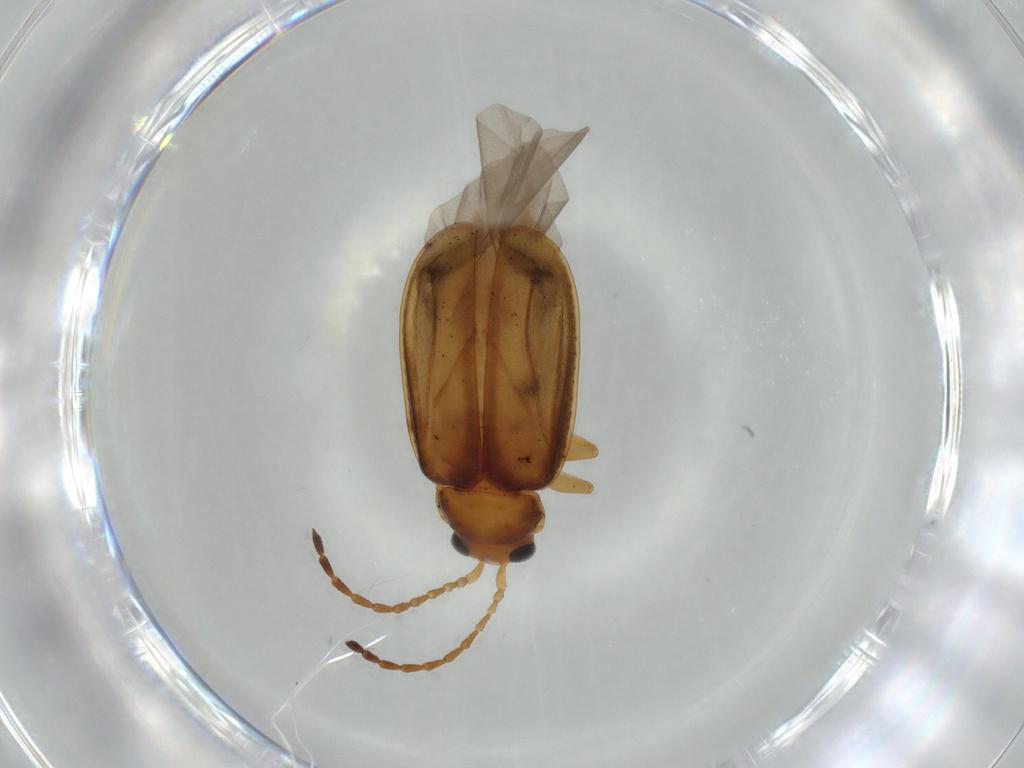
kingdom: Animalia
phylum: Arthropoda
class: Insecta
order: Coleoptera
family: Chrysomelidae
